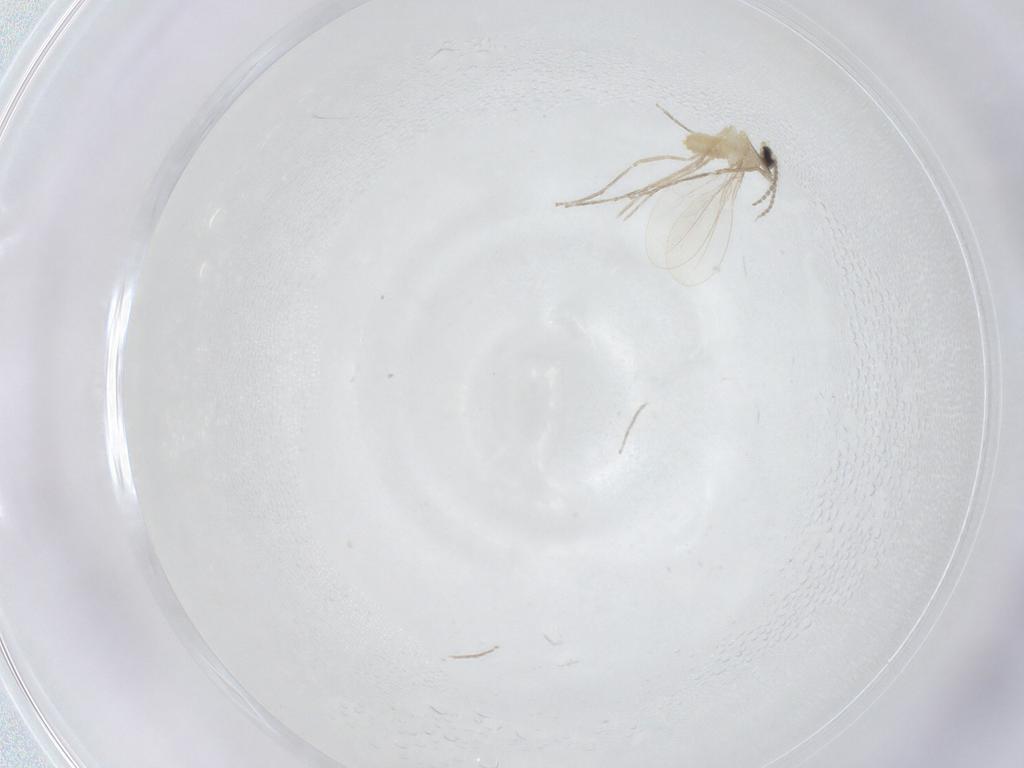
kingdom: Animalia
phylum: Arthropoda
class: Insecta
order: Diptera
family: Cecidomyiidae
